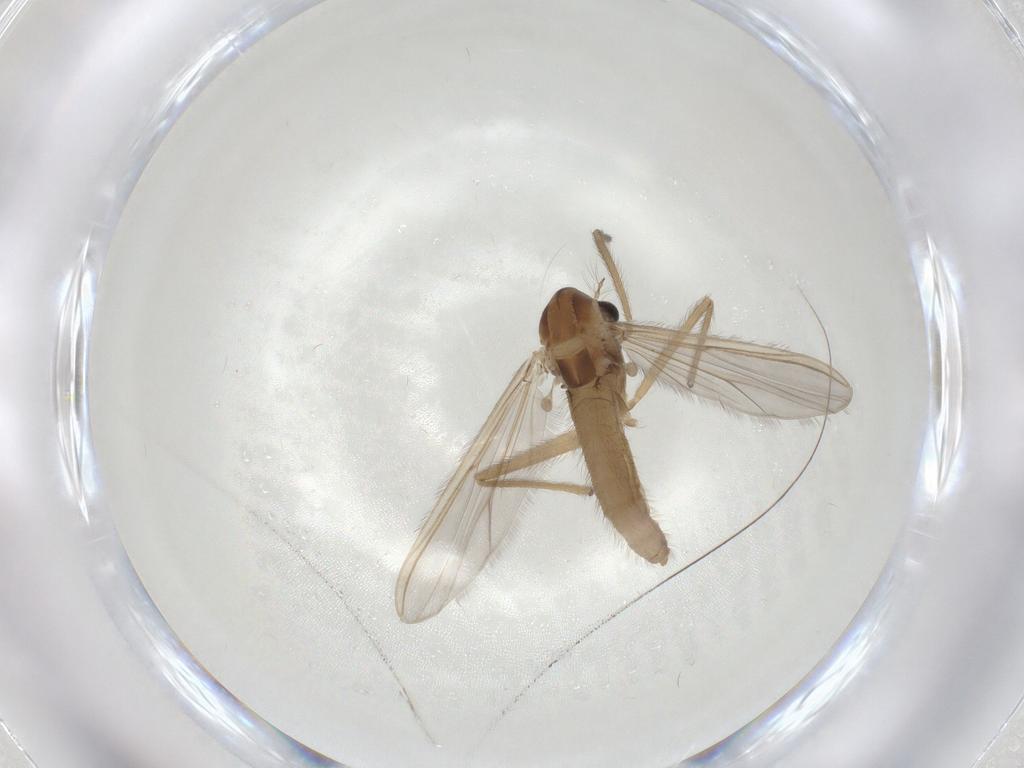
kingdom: Animalia
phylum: Arthropoda
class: Insecta
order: Diptera
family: Chironomidae
